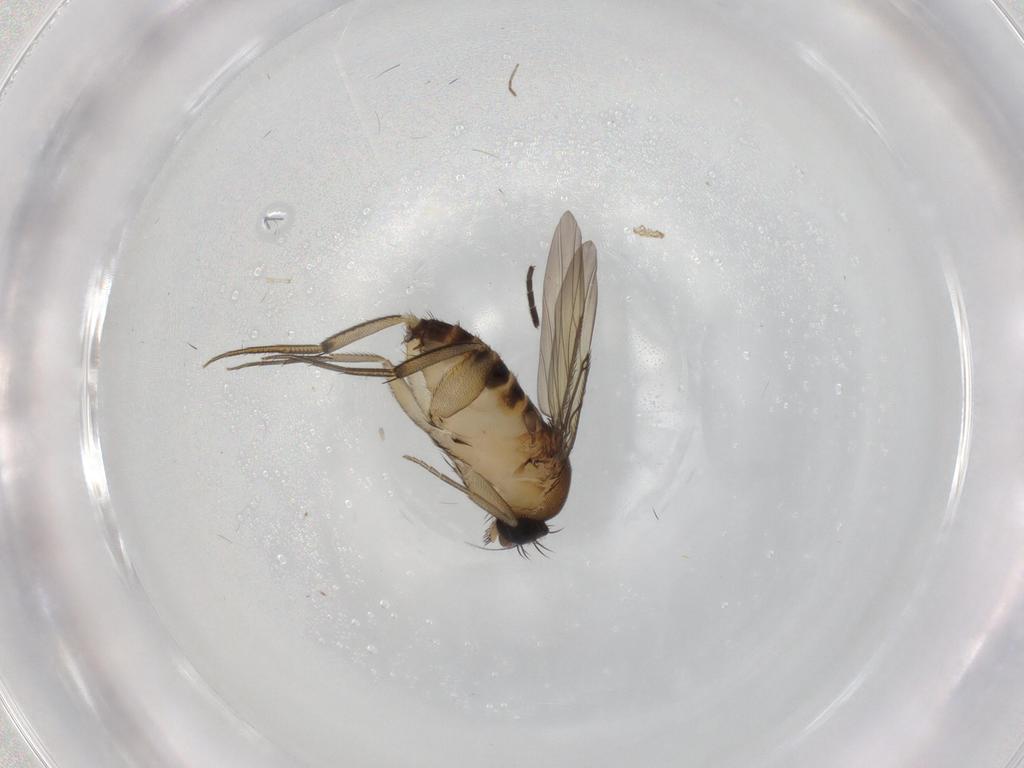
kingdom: Animalia
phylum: Arthropoda
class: Insecta
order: Diptera
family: Phoridae
